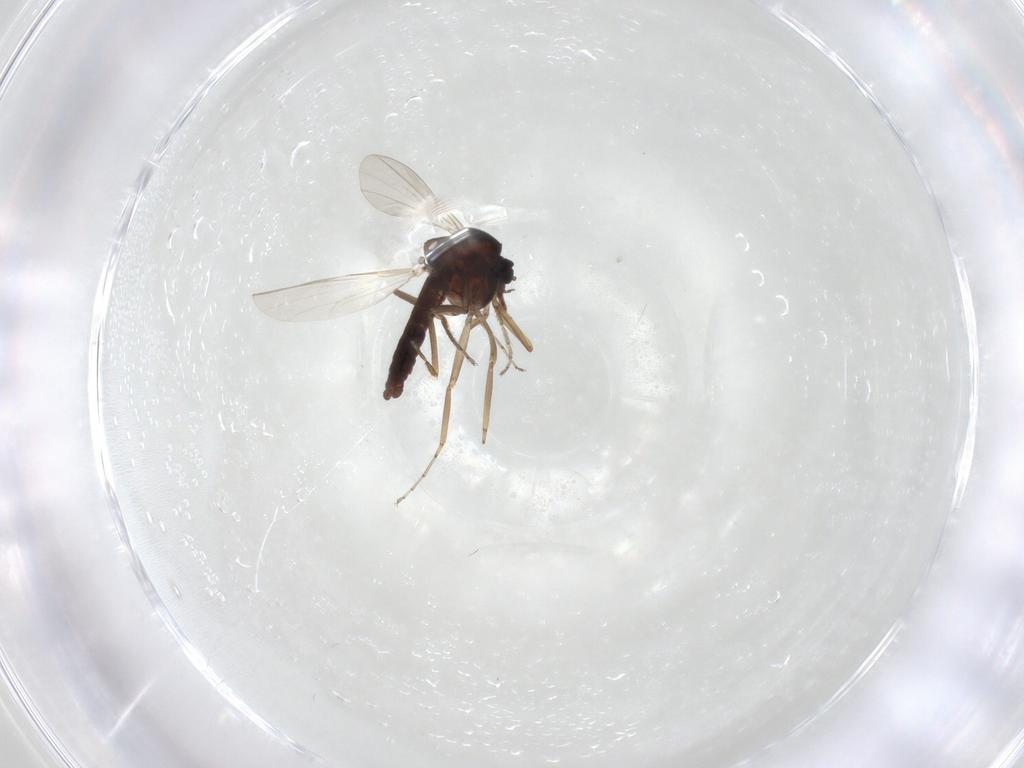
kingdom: Animalia
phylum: Arthropoda
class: Insecta
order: Diptera
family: Ceratopogonidae
